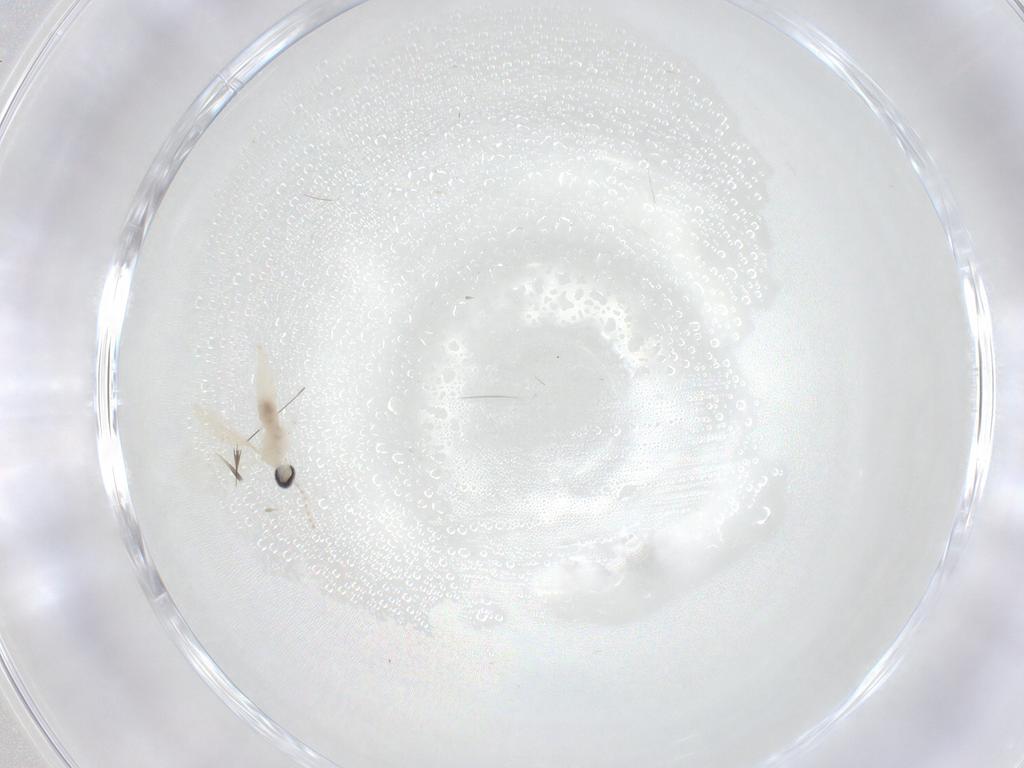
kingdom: Animalia
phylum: Arthropoda
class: Insecta
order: Diptera
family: Cecidomyiidae
